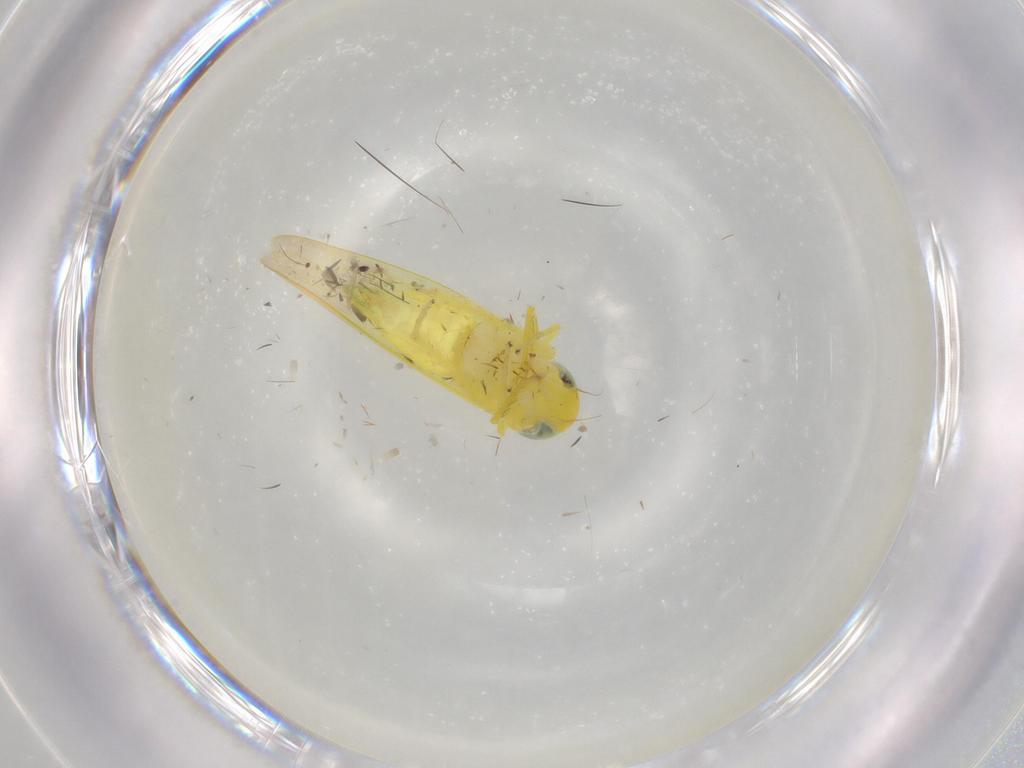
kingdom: Animalia
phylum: Arthropoda
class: Insecta
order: Hemiptera
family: Cicadellidae
